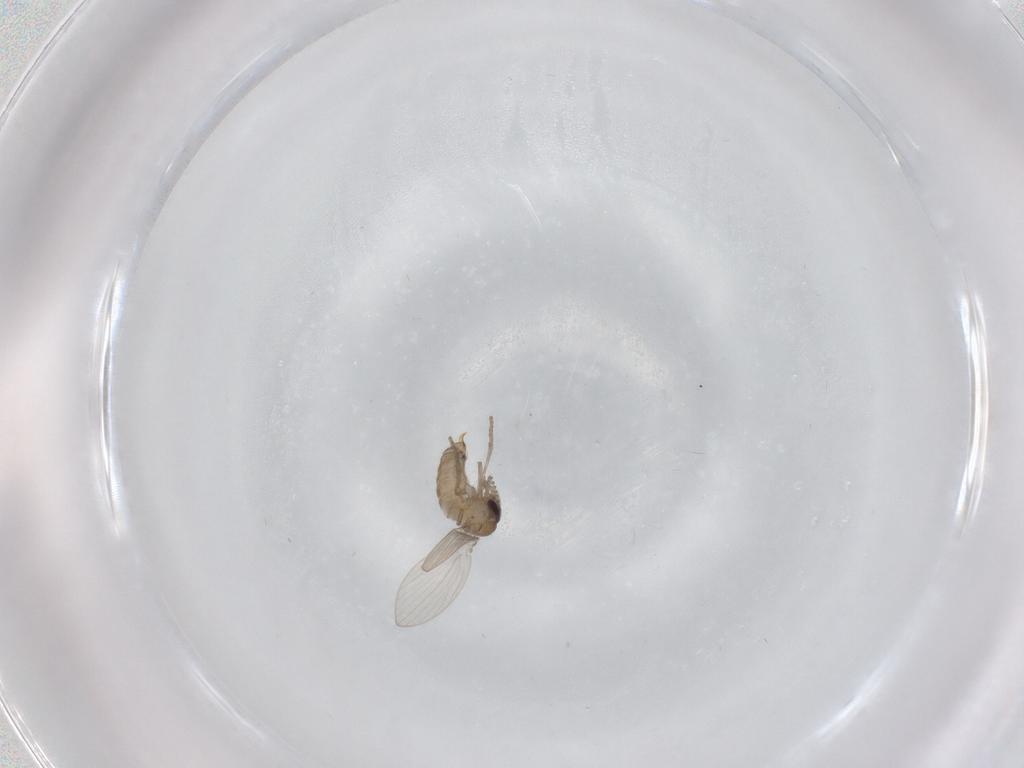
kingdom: Animalia
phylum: Arthropoda
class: Insecta
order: Diptera
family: Psychodidae
